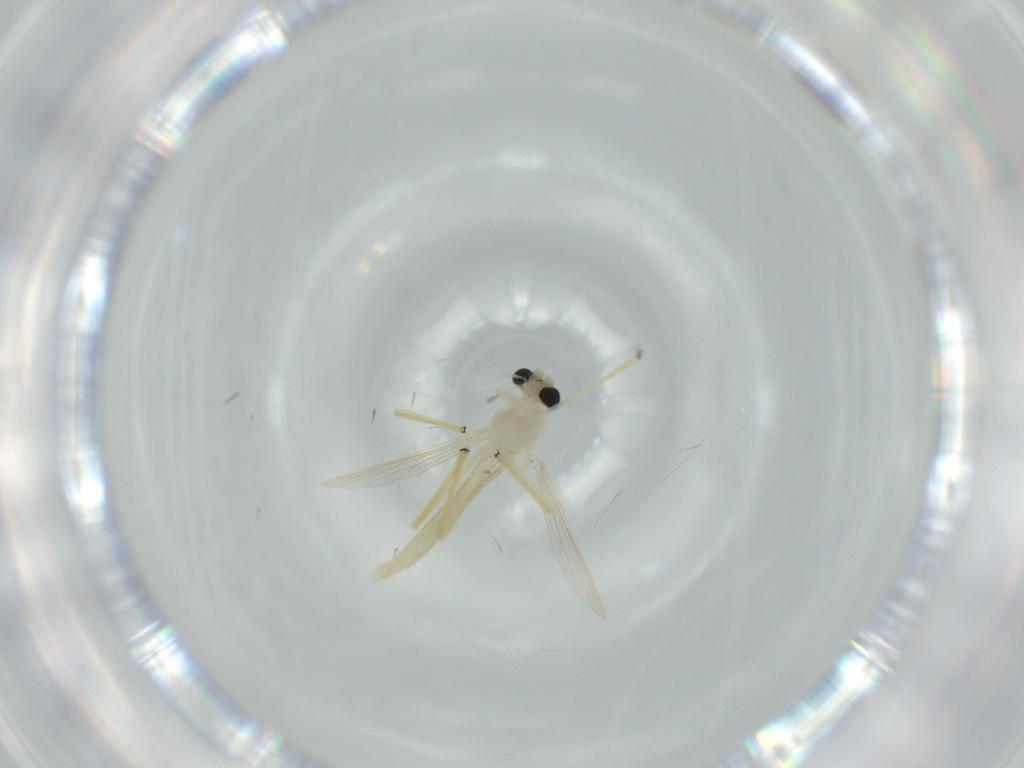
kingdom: Animalia
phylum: Arthropoda
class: Insecta
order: Diptera
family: Chironomidae
